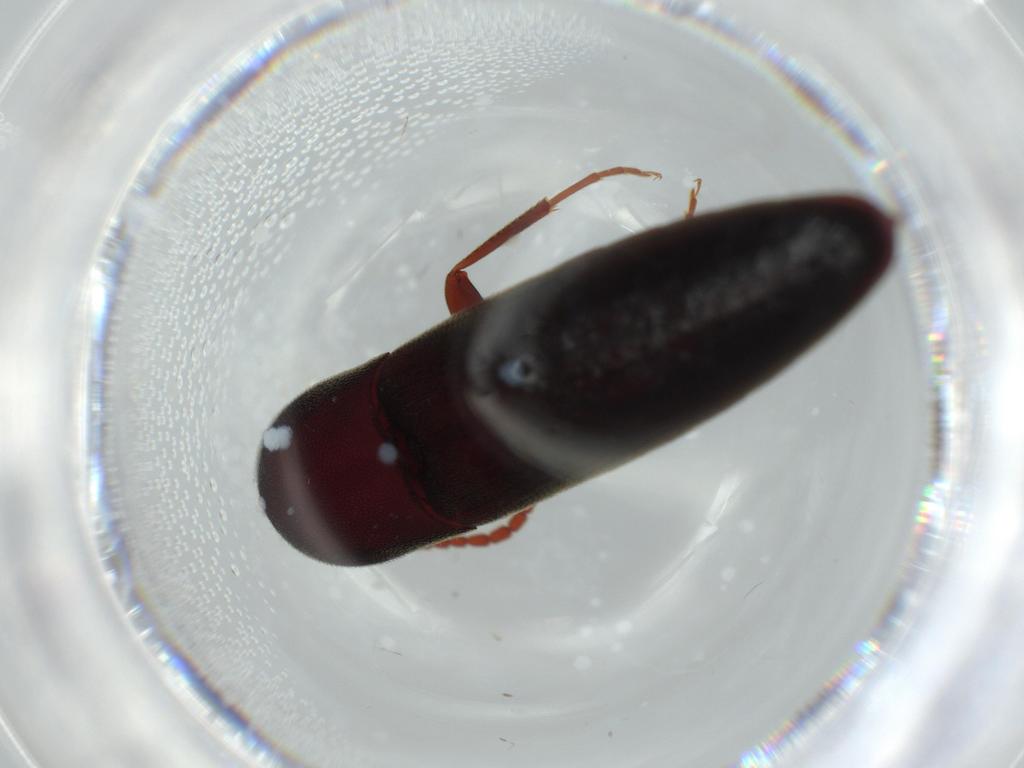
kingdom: Animalia
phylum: Arthropoda
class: Insecta
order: Coleoptera
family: Eucnemidae
